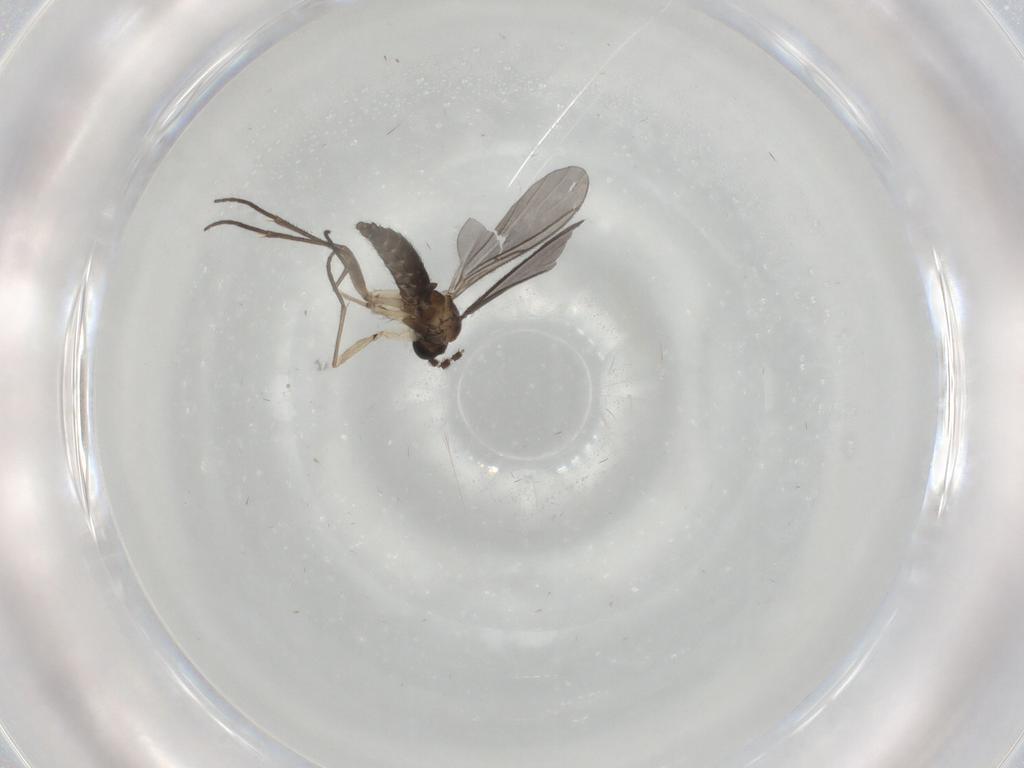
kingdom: Animalia
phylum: Arthropoda
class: Insecta
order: Diptera
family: Sciaridae
